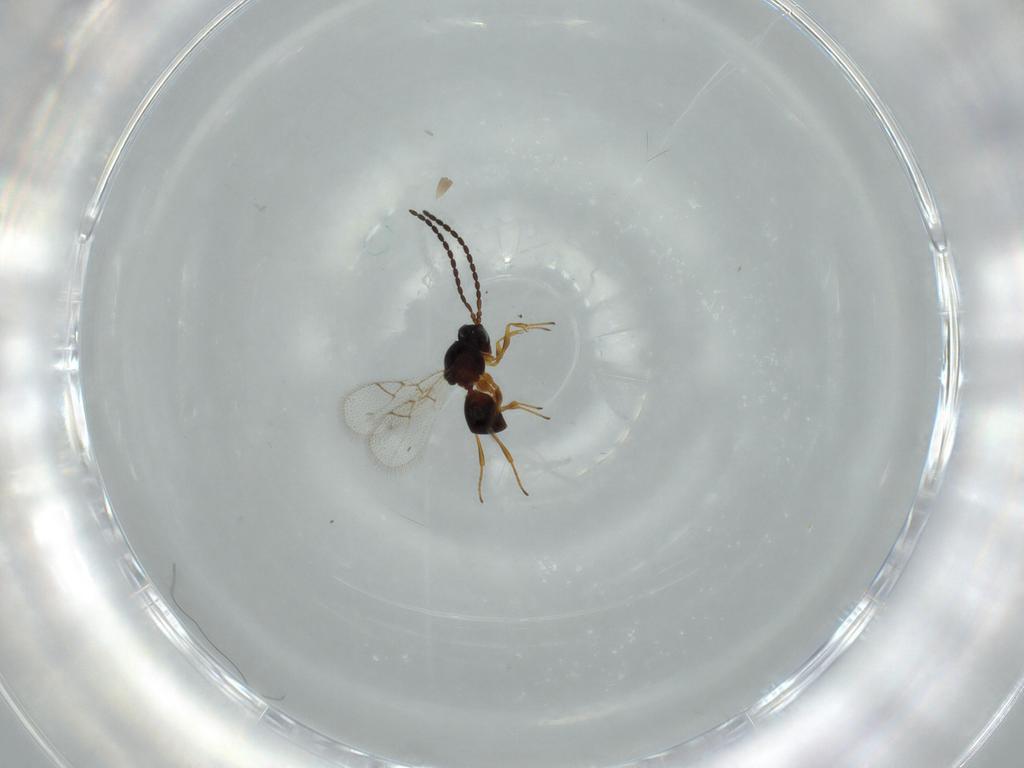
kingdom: Animalia
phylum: Arthropoda
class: Insecta
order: Hymenoptera
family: Figitidae
